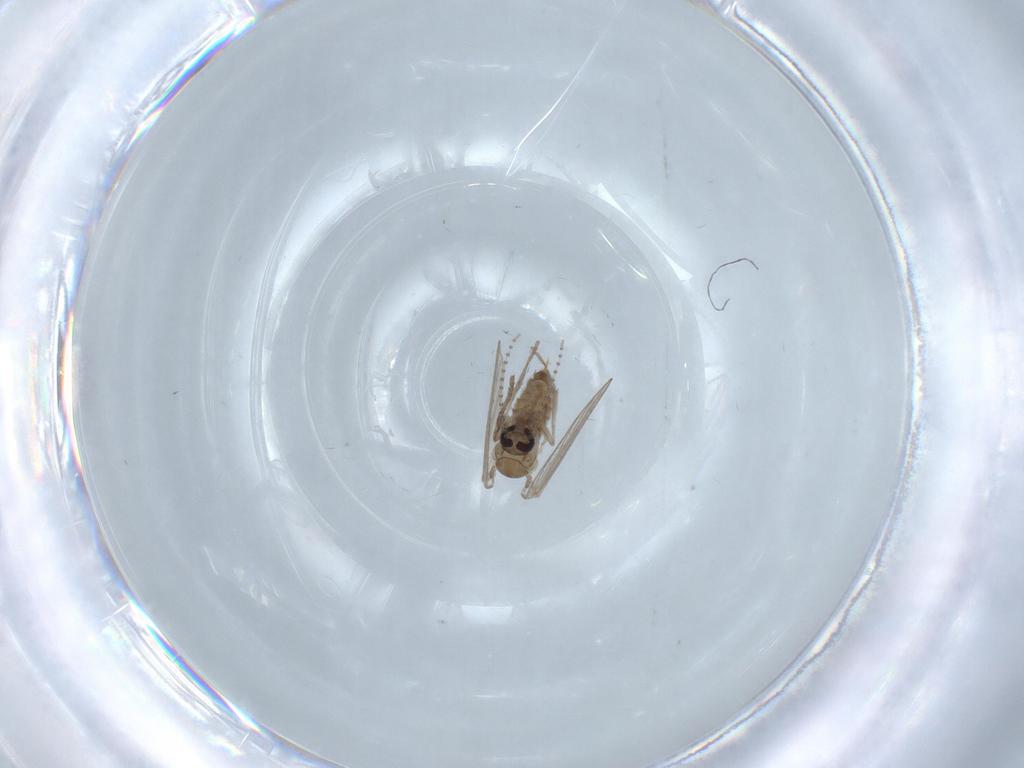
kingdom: Animalia
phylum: Arthropoda
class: Insecta
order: Diptera
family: Psychodidae
